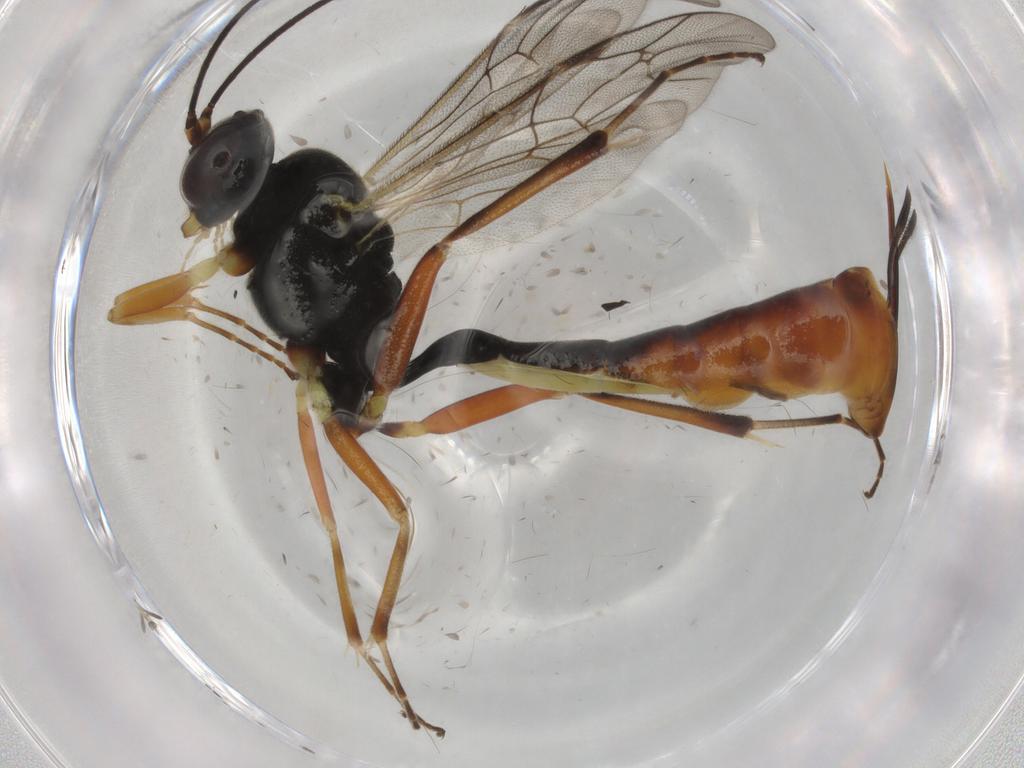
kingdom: Animalia
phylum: Arthropoda
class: Insecta
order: Hymenoptera
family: Ichneumonidae
